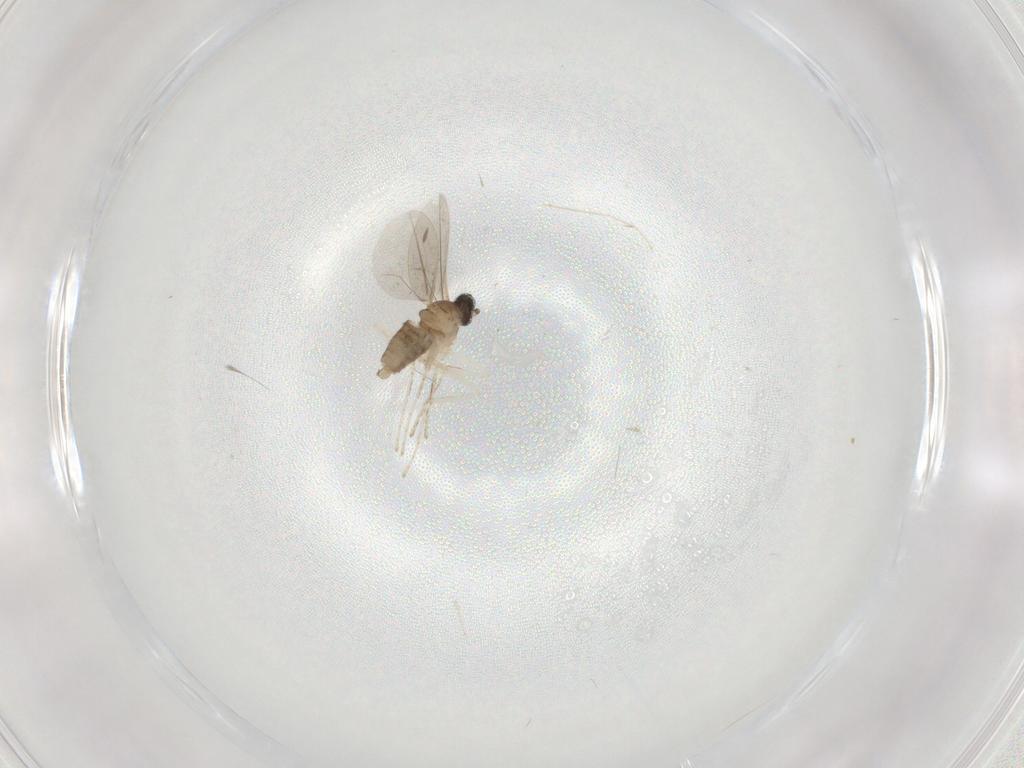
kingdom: Animalia
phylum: Arthropoda
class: Insecta
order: Diptera
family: Cecidomyiidae
